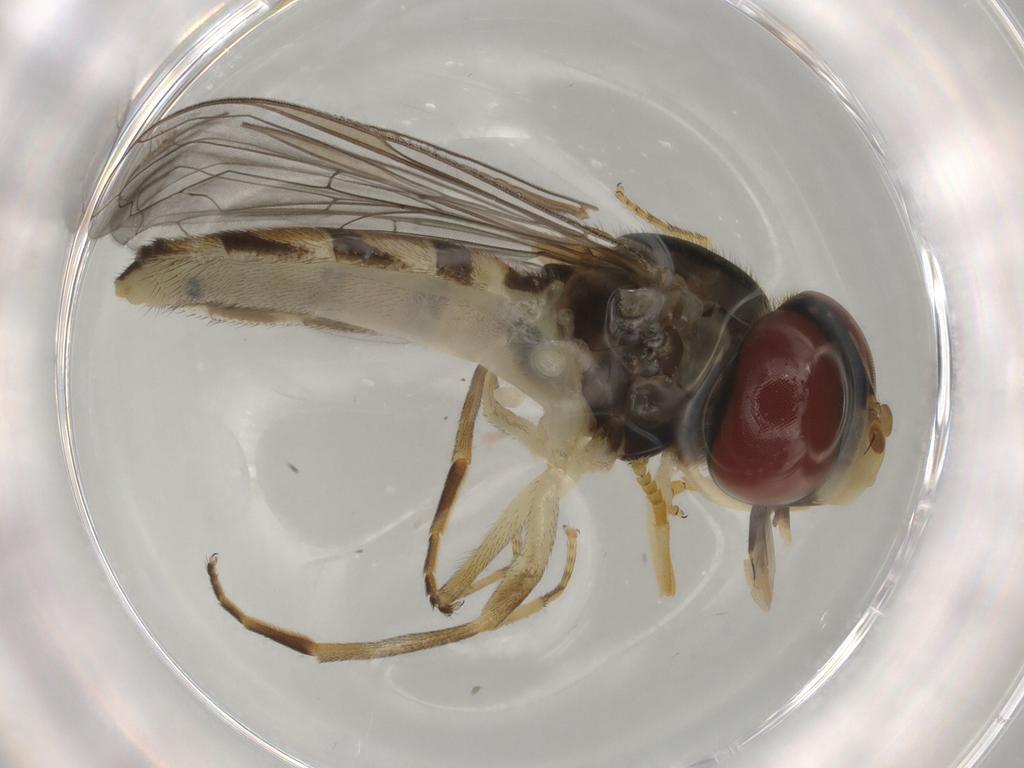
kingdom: Animalia
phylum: Arthropoda
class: Insecta
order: Diptera
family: Syrphidae
